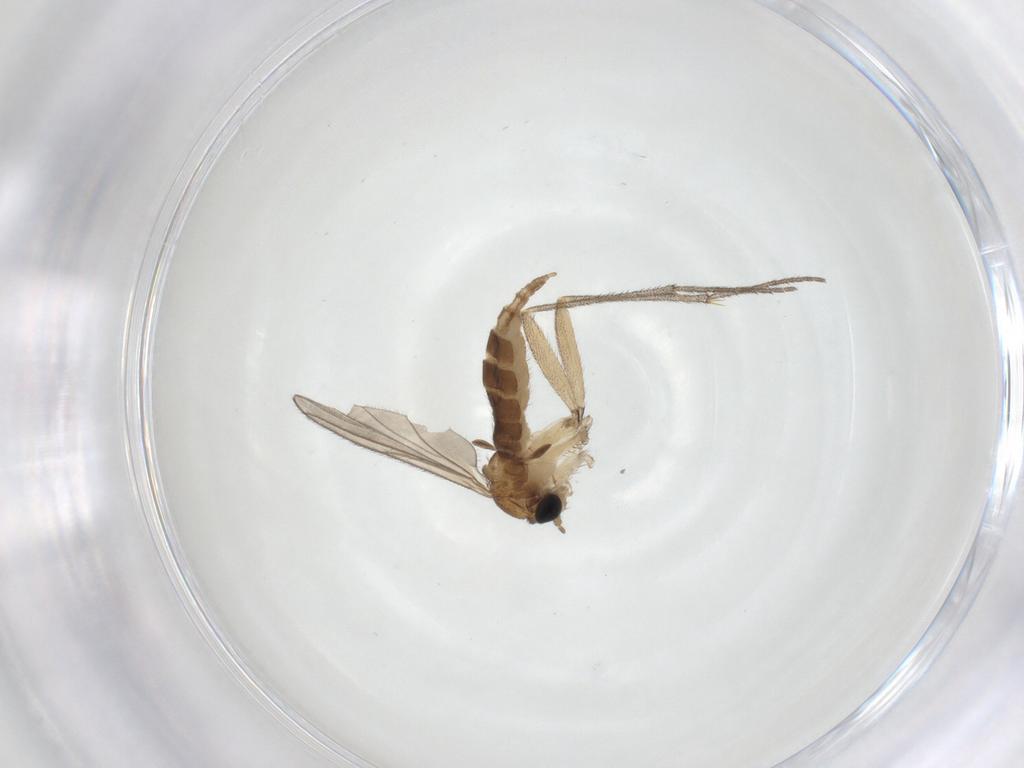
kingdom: Animalia
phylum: Arthropoda
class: Insecta
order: Diptera
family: Sciaridae
